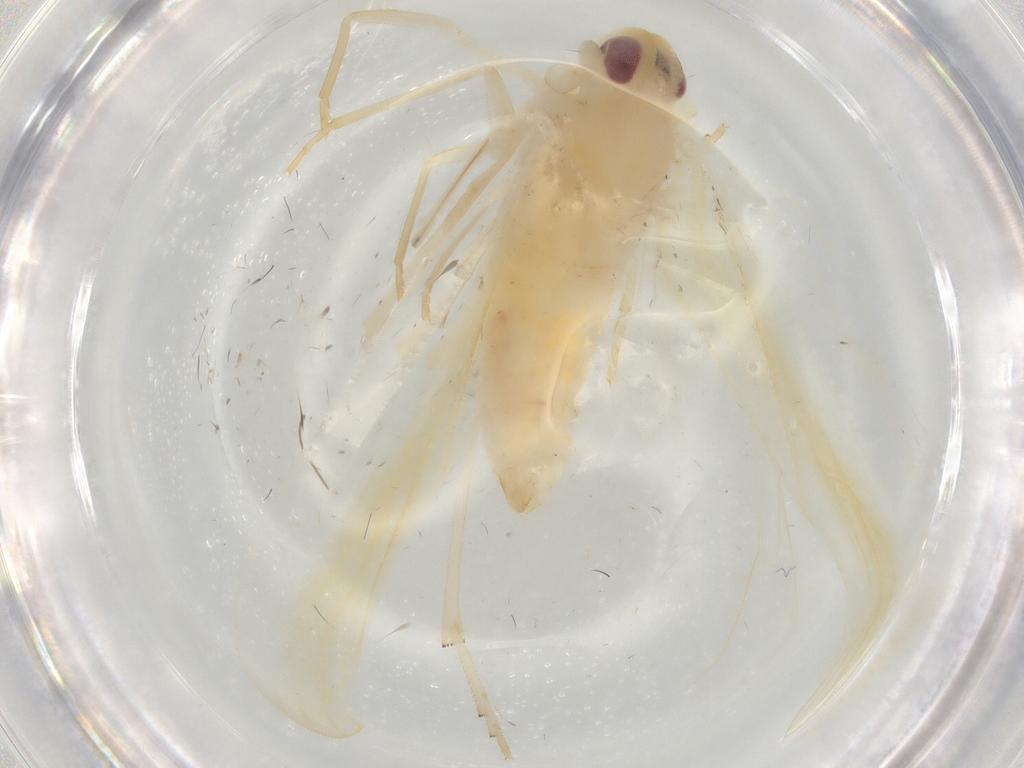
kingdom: Animalia
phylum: Arthropoda
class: Insecta
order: Hemiptera
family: Derbidae
